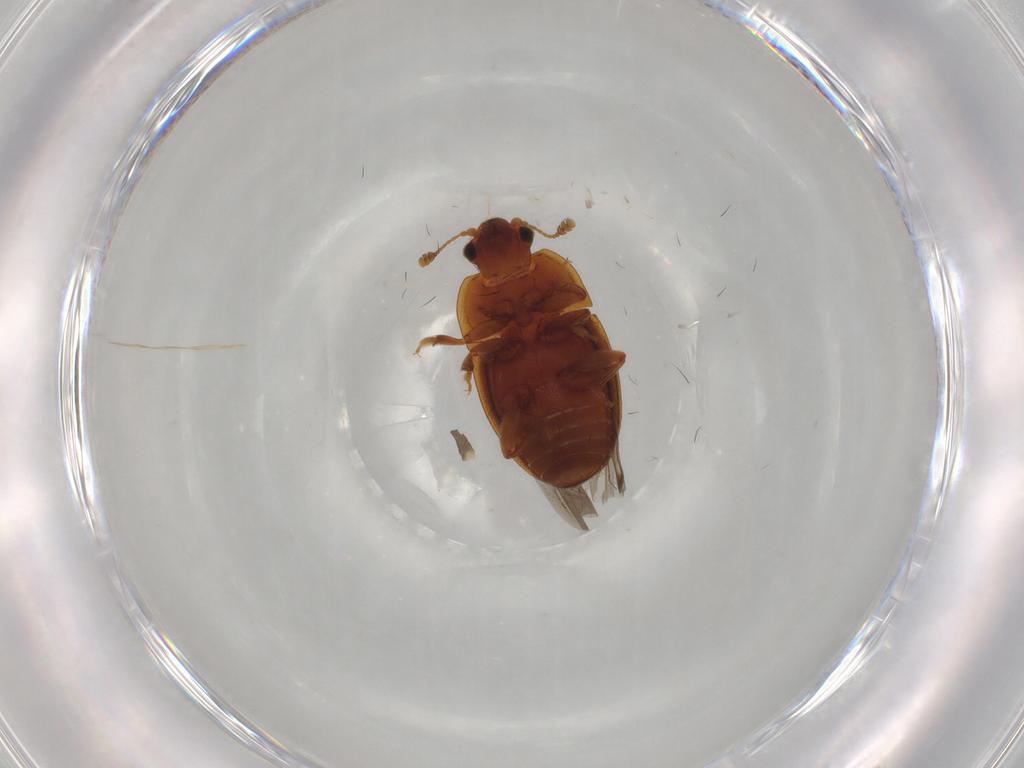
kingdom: Animalia
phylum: Arthropoda
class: Insecta
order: Coleoptera
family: Nitidulidae
